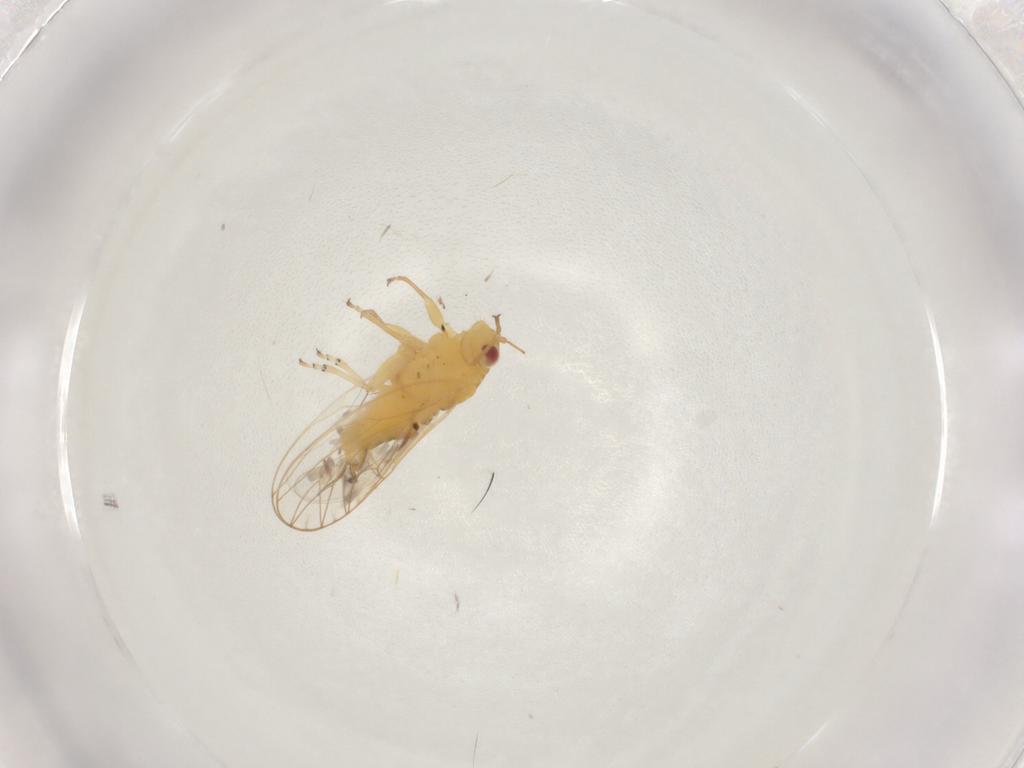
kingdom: Animalia
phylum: Arthropoda
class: Insecta
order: Diptera
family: Chironomidae
